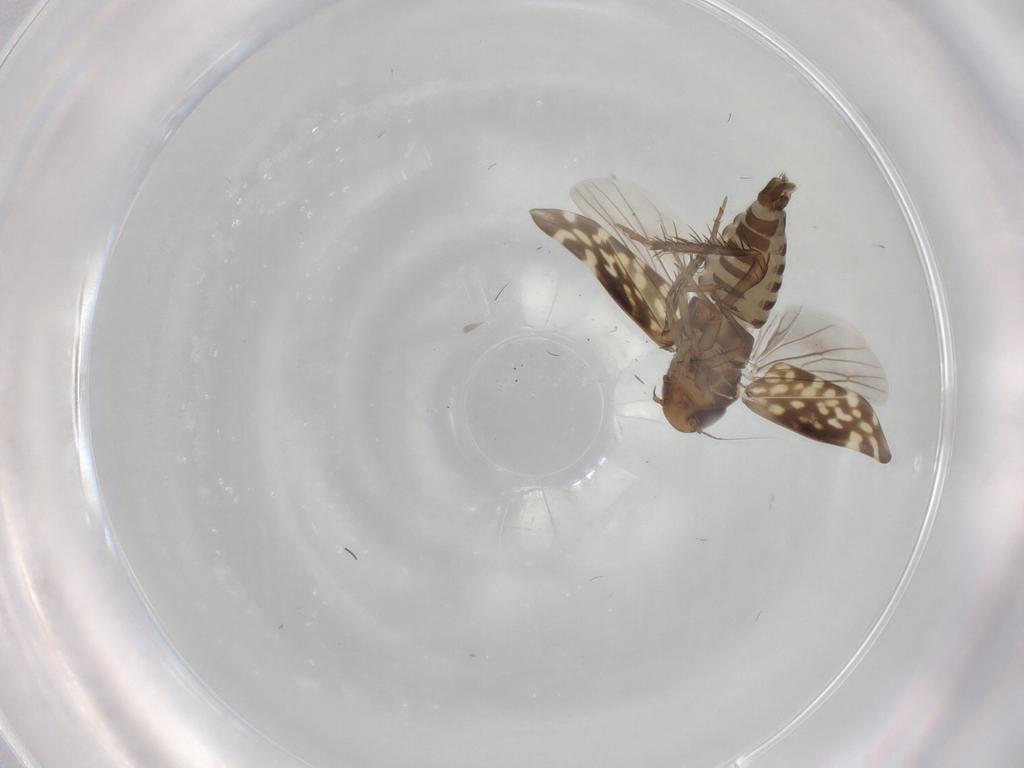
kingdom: Animalia
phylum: Arthropoda
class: Insecta
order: Hemiptera
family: Cicadellidae
